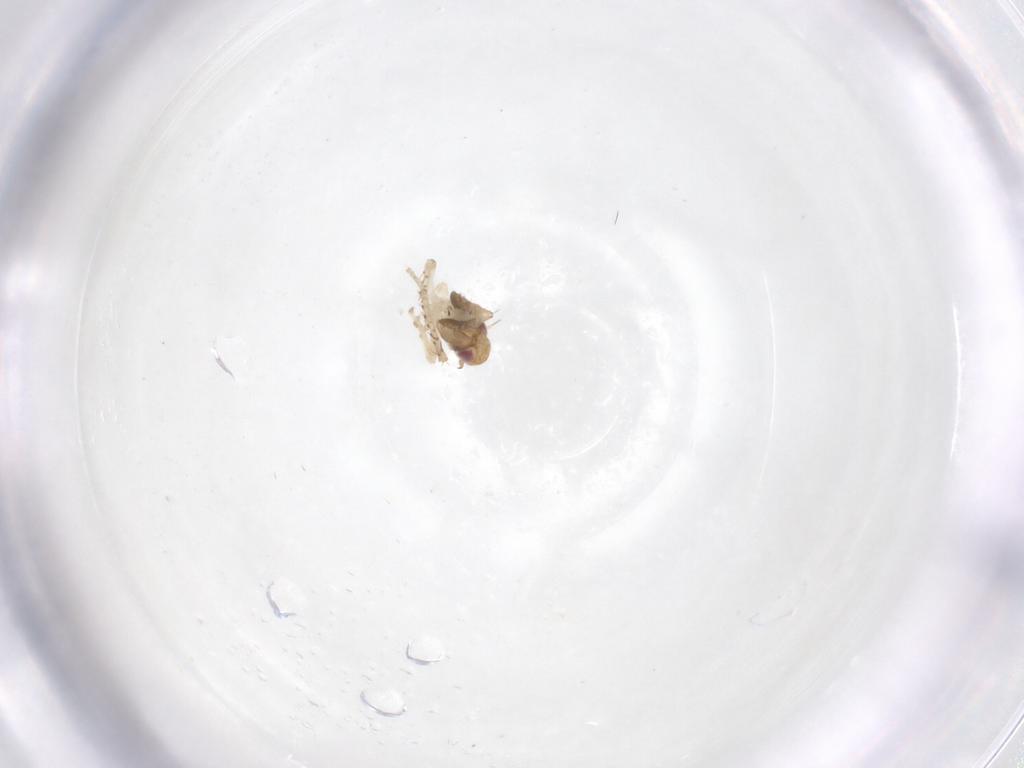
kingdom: Animalia
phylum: Arthropoda
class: Insecta
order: Hemiptera
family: Cicadellidae
